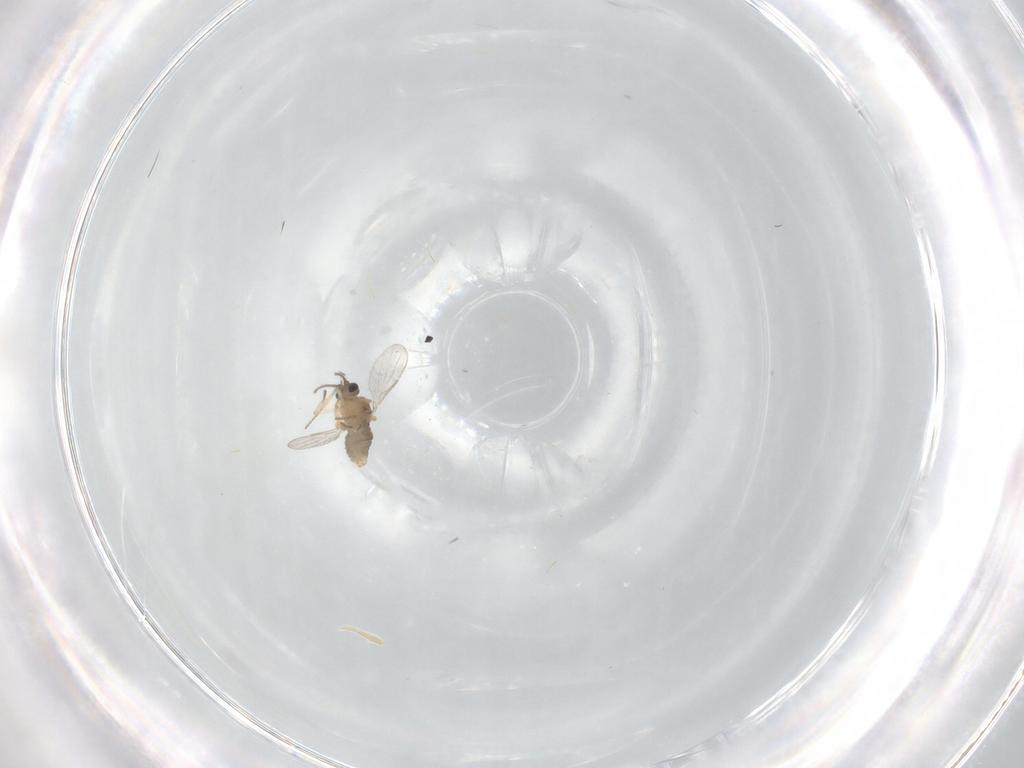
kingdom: Animalia
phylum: Arthropoda
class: Insecta
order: Diptera
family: Ceratopogonidae
